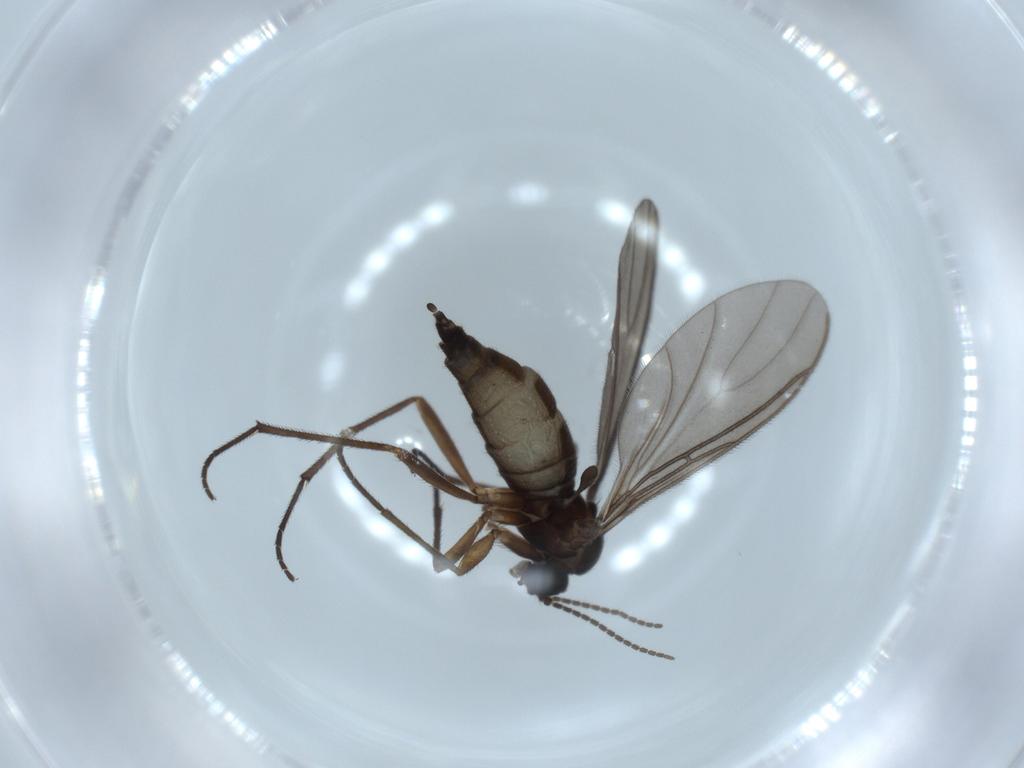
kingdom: Animalia
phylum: Arthropoda
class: Insecta
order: Diptera
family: Sciaridae
